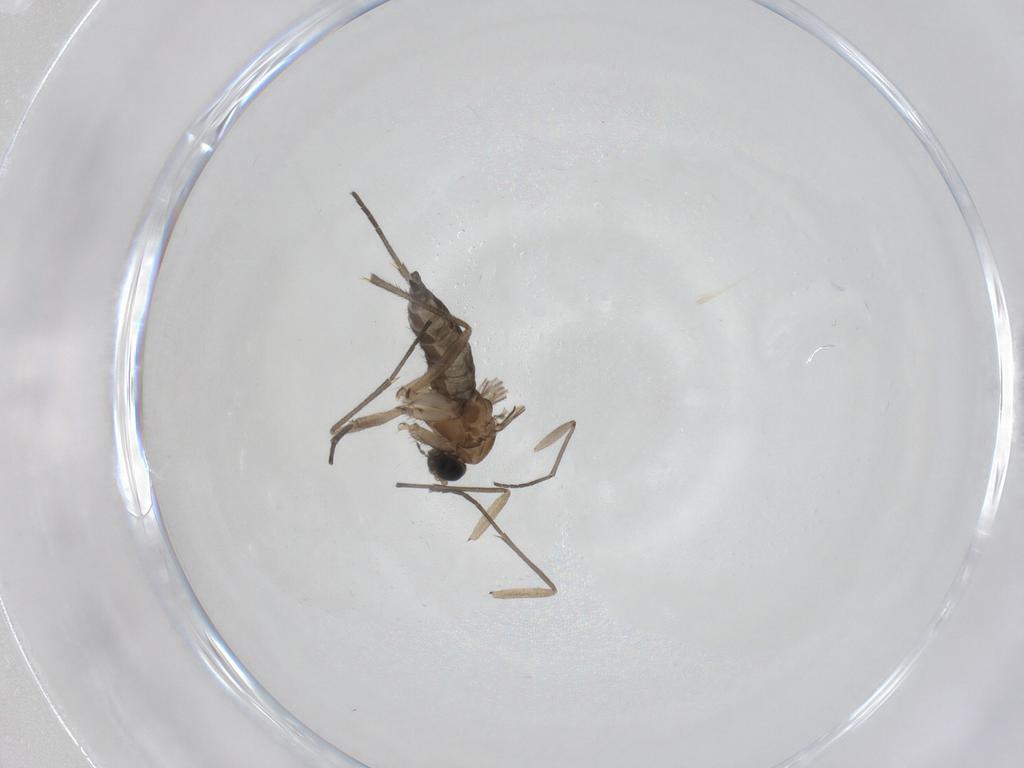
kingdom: Animalia
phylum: Arthropoda
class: Insecta
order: Diptera
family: Sciaridae
